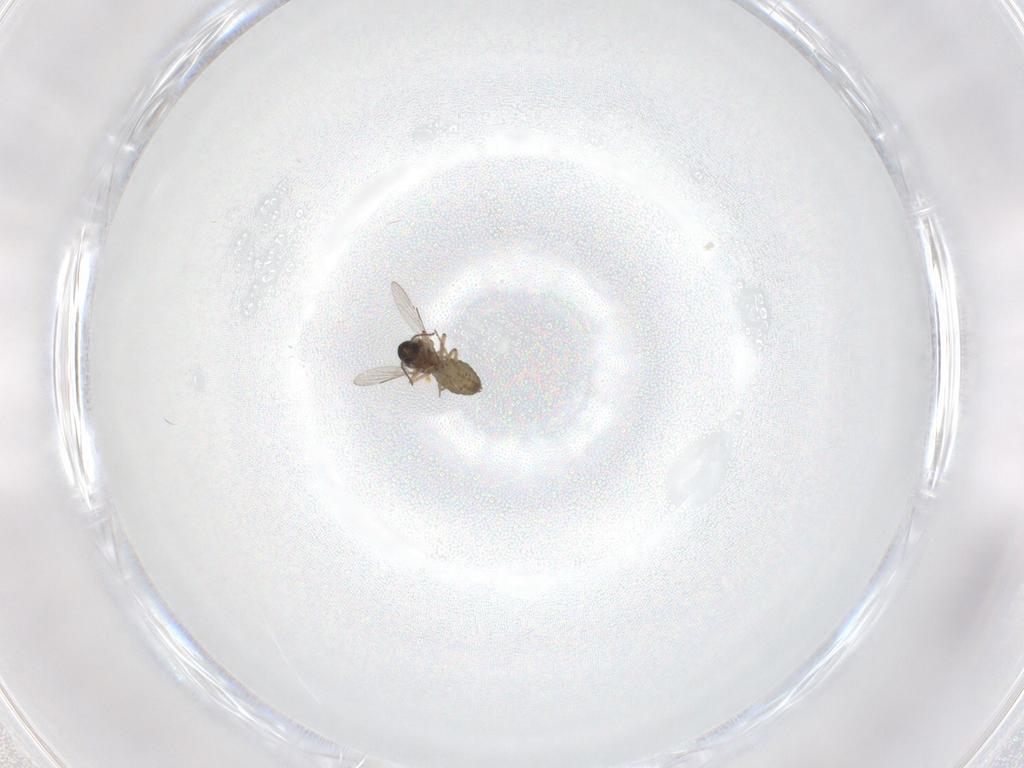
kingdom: Animalia
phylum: Arthropoda
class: Insecta
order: Diptera
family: Ceratopogonidae
